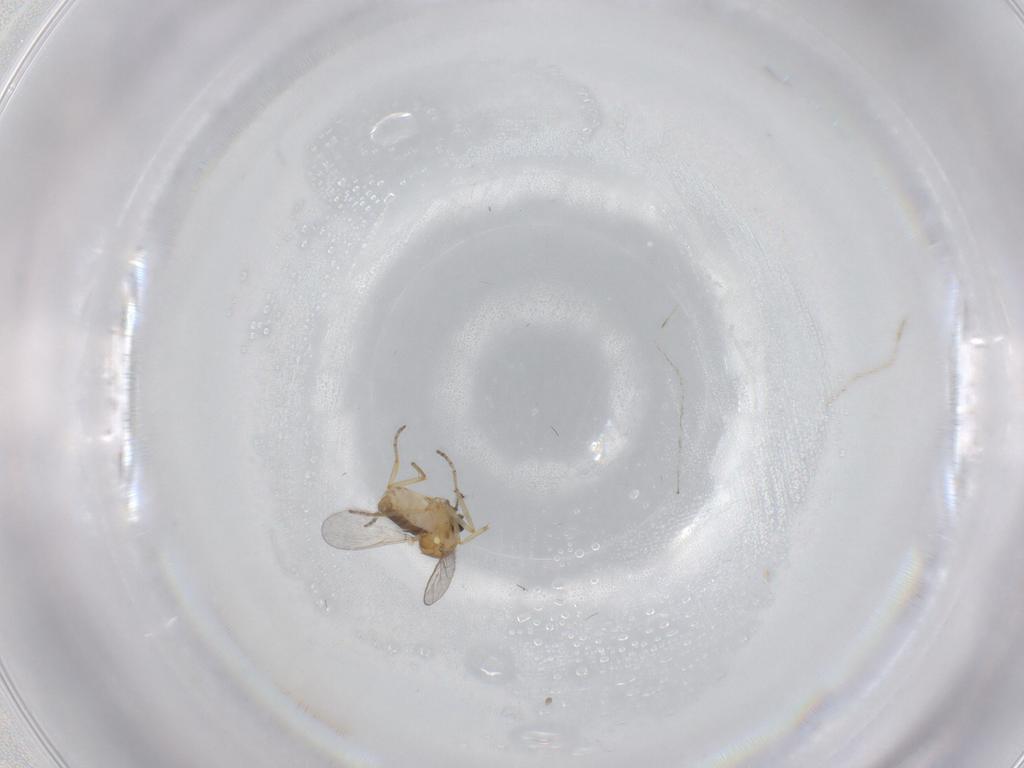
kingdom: Animalia
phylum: Arthropoda
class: Insecta
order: Diptera
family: Ceratopogonidae
